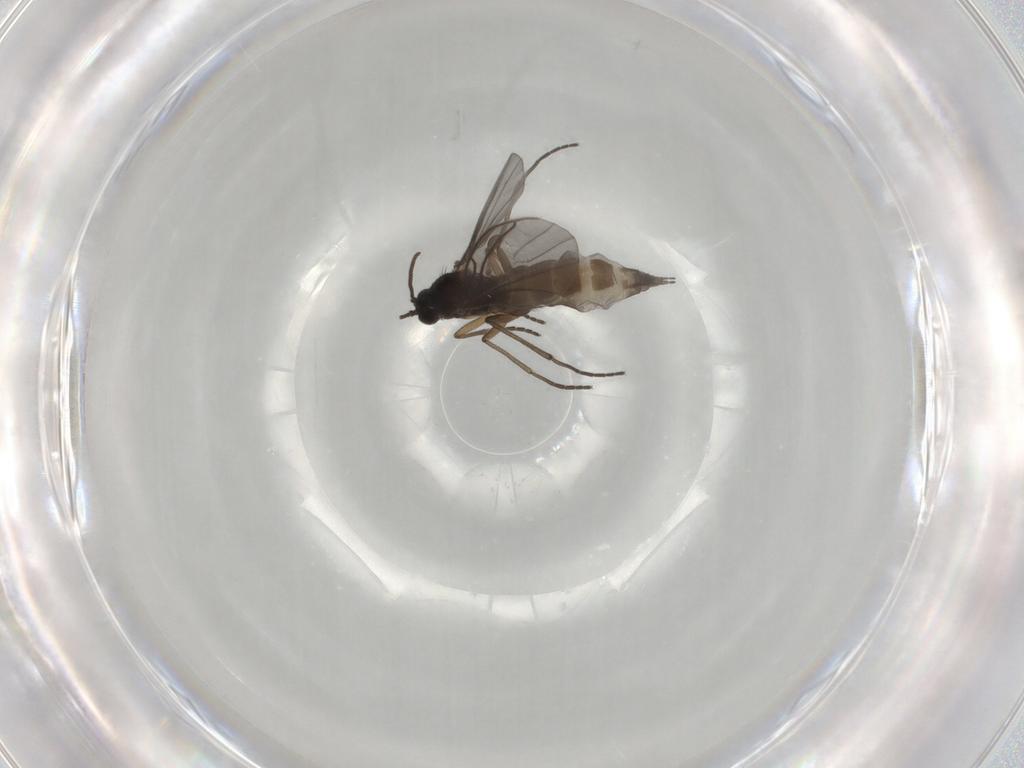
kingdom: Animalia
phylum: Arthropoda
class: Insecta
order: Diptera
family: Sciaridae
